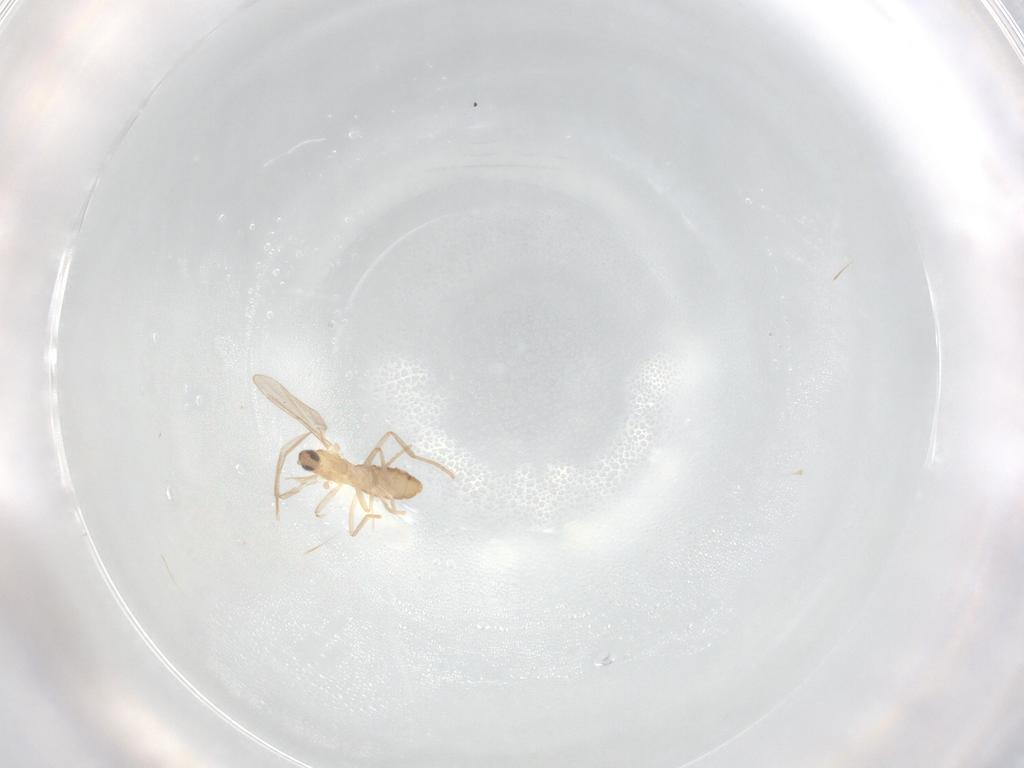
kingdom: Animalia
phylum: Arthropoda
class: Insecta
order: Diptera
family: Cecidomyiidae
